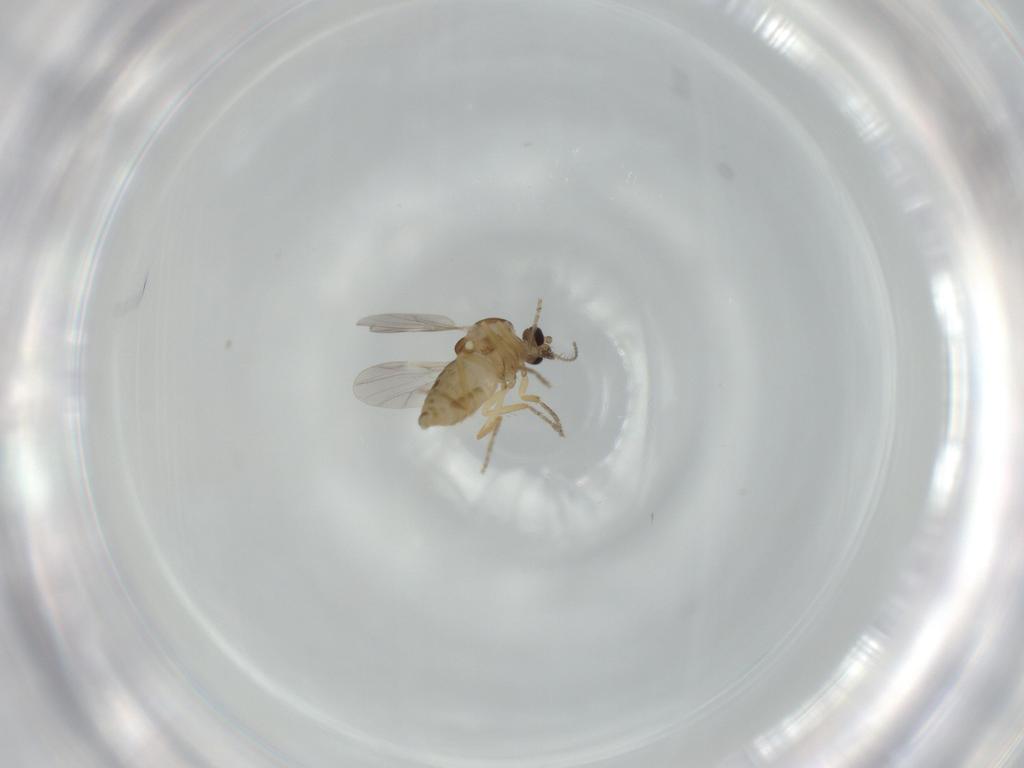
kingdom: Animalia
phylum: Arthropoda
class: Insecta
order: Diptera
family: Ceratopogonidae
